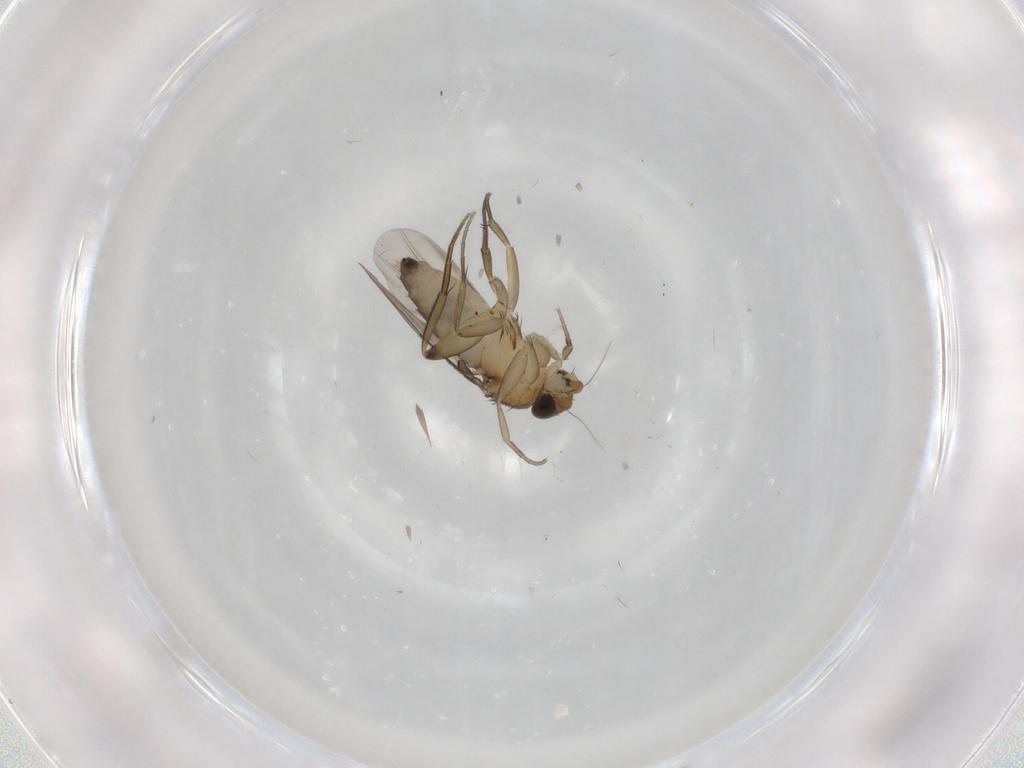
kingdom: Animalia
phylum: Arthropoda
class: Insecta
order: Diptera
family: Phoridae
